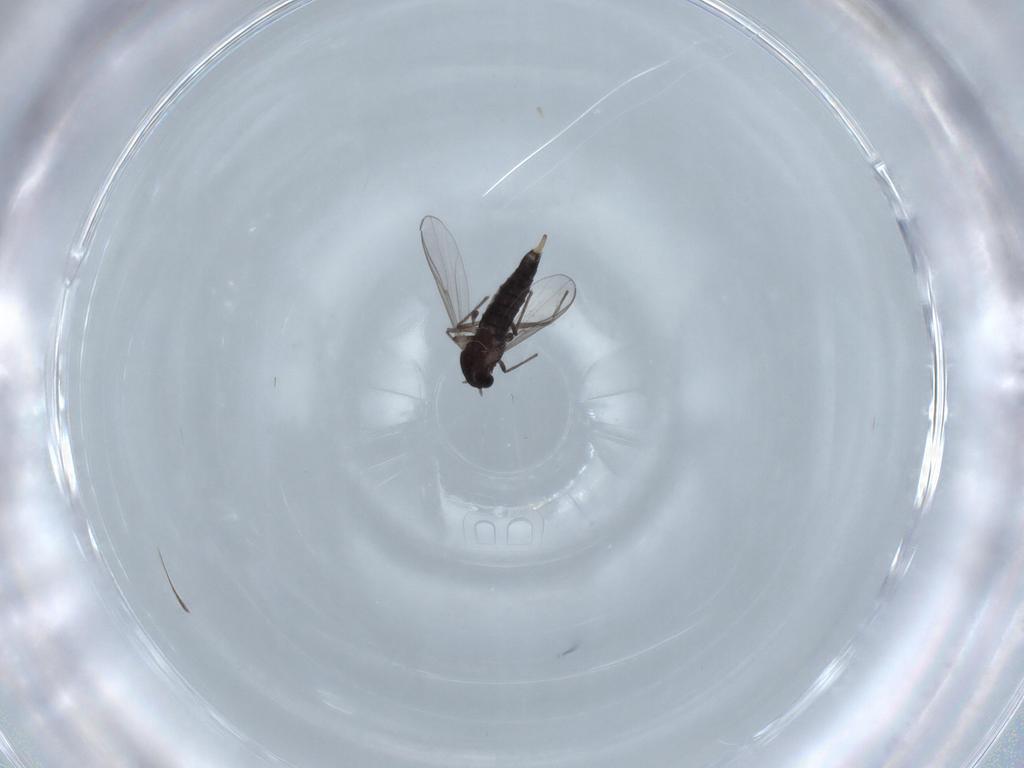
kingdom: Animalia
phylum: Arthropoda
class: Insecta
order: Diptera
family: Sciaridae
